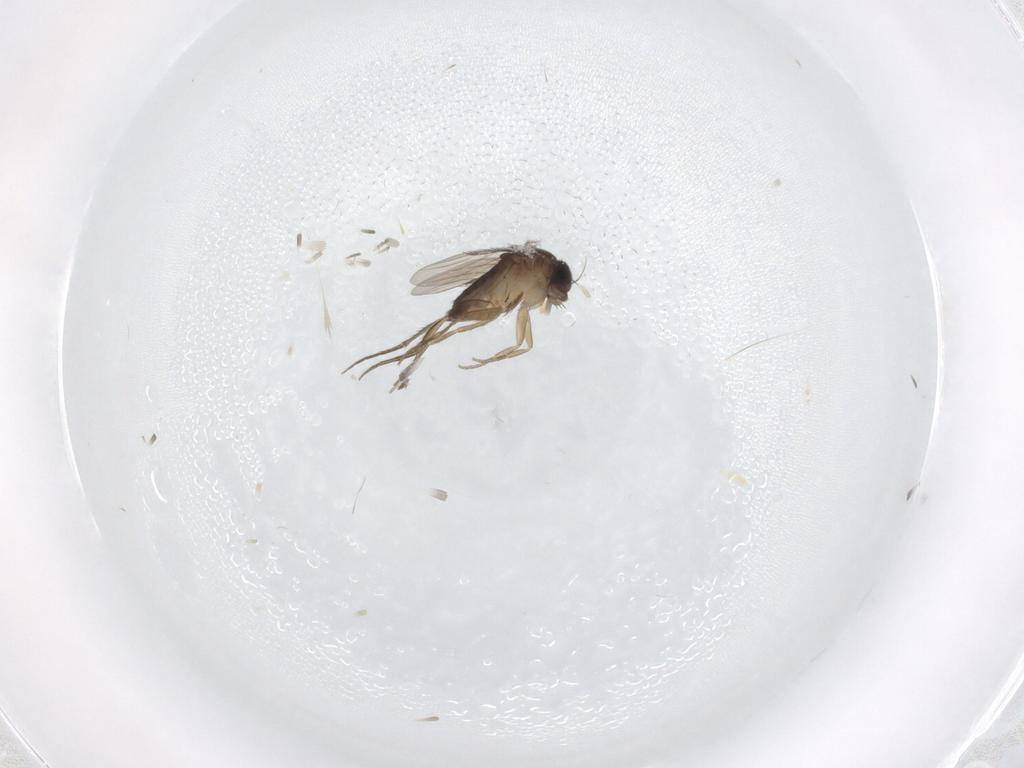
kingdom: Animalia
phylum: Arthropoda
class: Insecta
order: Diptera
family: Phoridae
